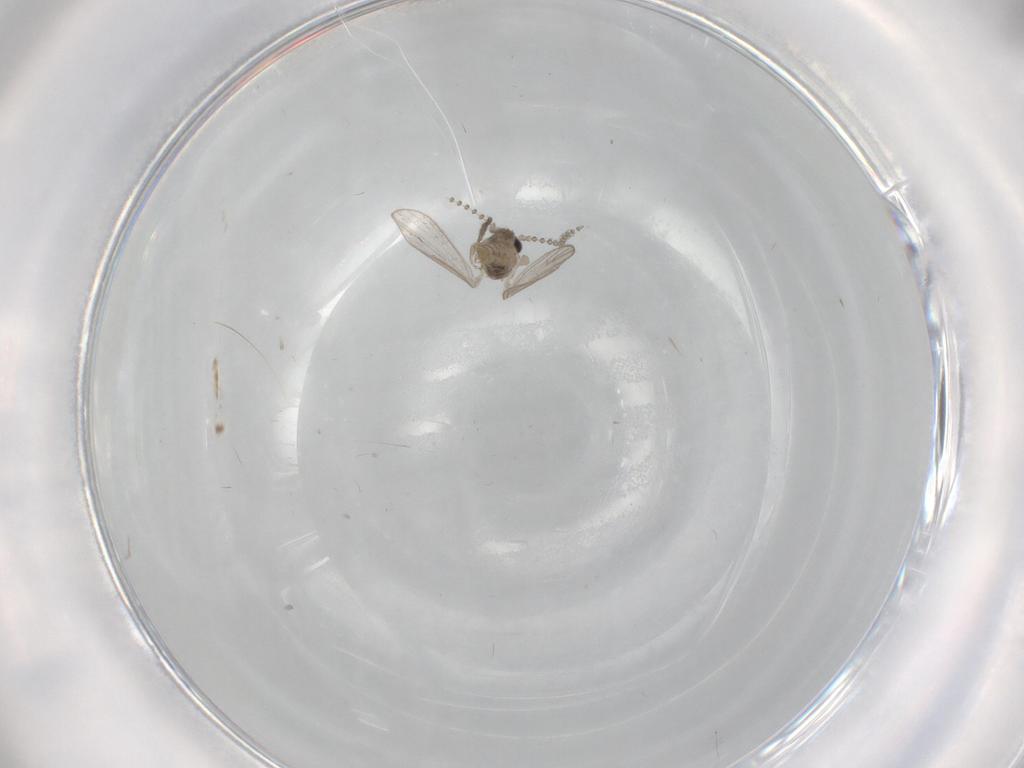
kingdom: Animalia
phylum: Arthropoda
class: Insecta
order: Diptera
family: Psychodidae
